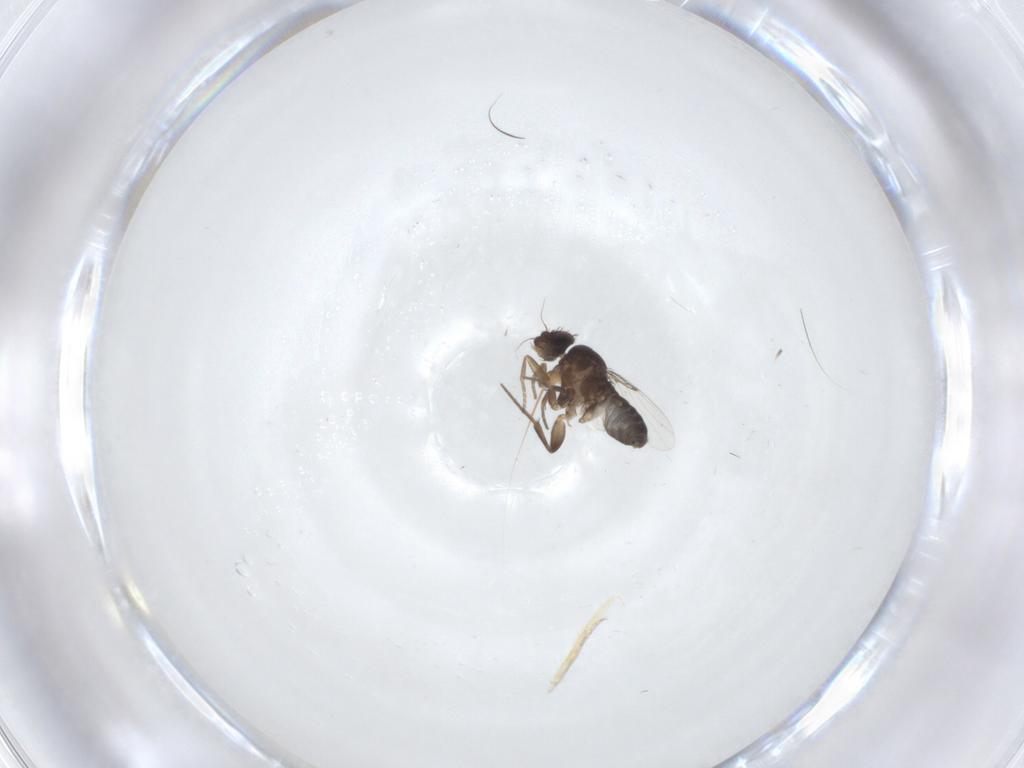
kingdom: Animalia
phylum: Arthropoda
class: Insecta
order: Diptera
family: Phoridae
